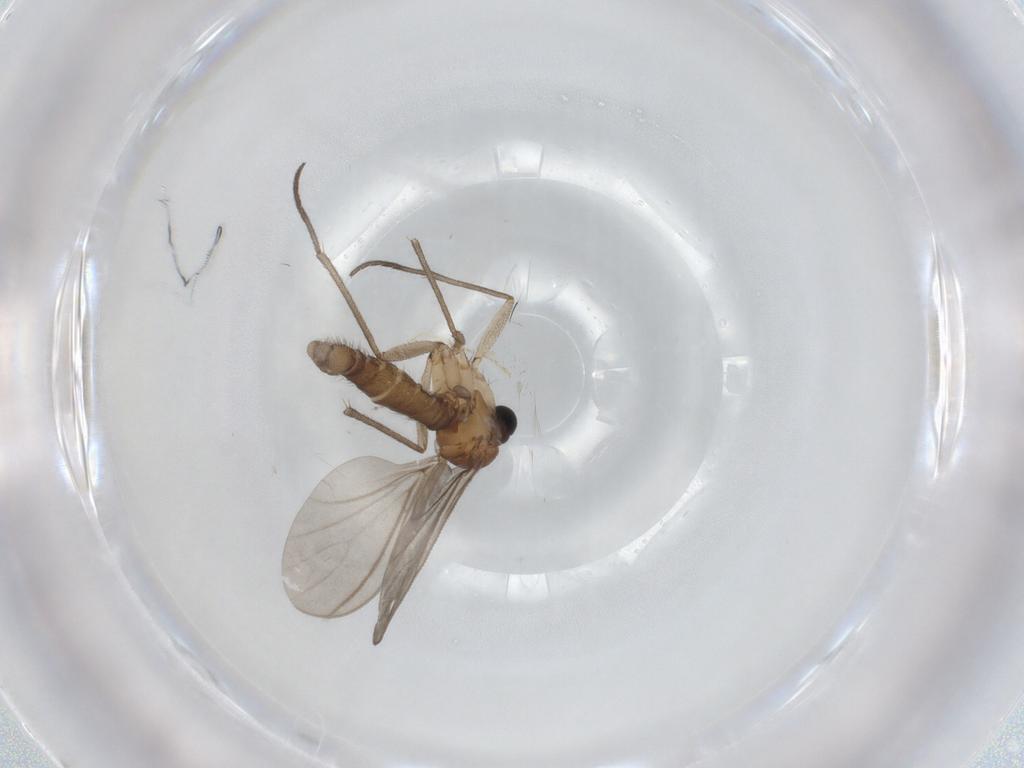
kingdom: Animalia
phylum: Arthropoda
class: Insecta
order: Diptera
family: Sciaridae
